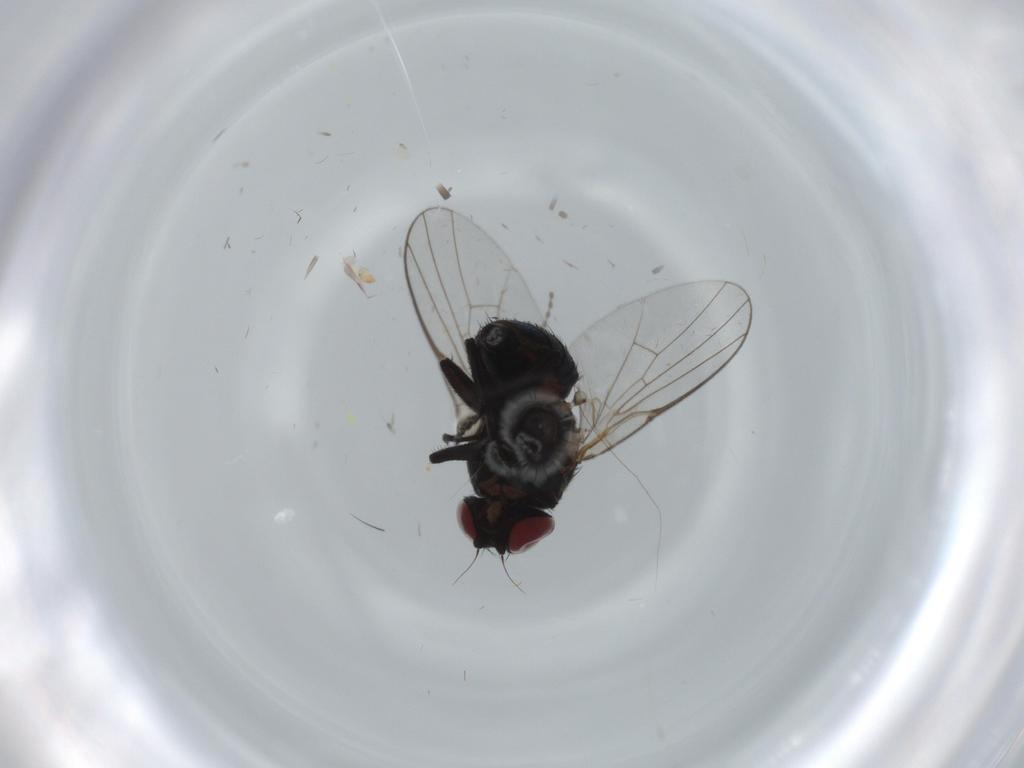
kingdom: Animalia
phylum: Arthropoda
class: Insecta
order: Diptera
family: Agromyzidae
